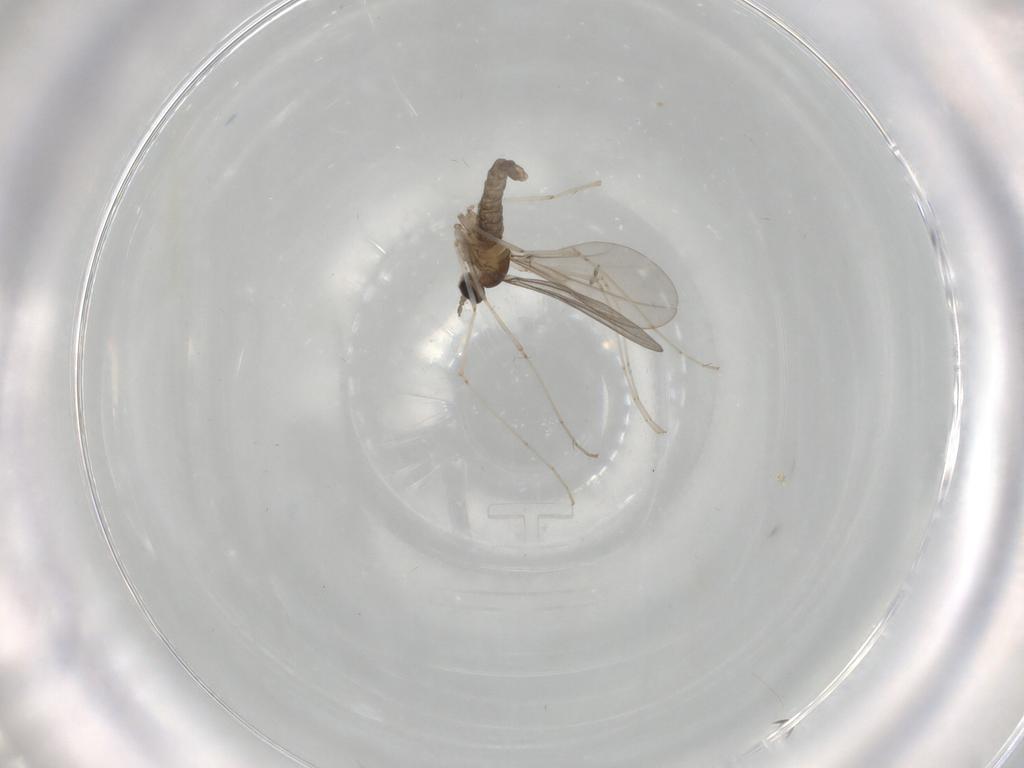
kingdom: Animalia
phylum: Arthropoda
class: Insecta
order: Diptera
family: Cecidomyiidae
